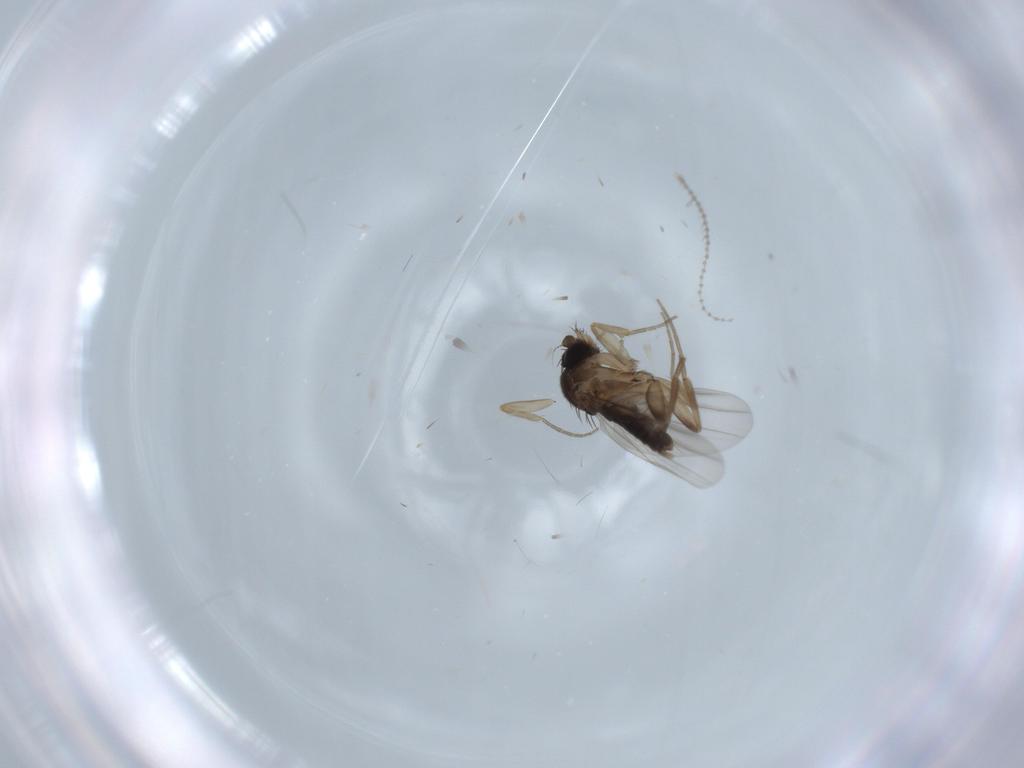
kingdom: Animalia
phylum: Arthropoda
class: Insecta
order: Diptera
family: Phoridae
